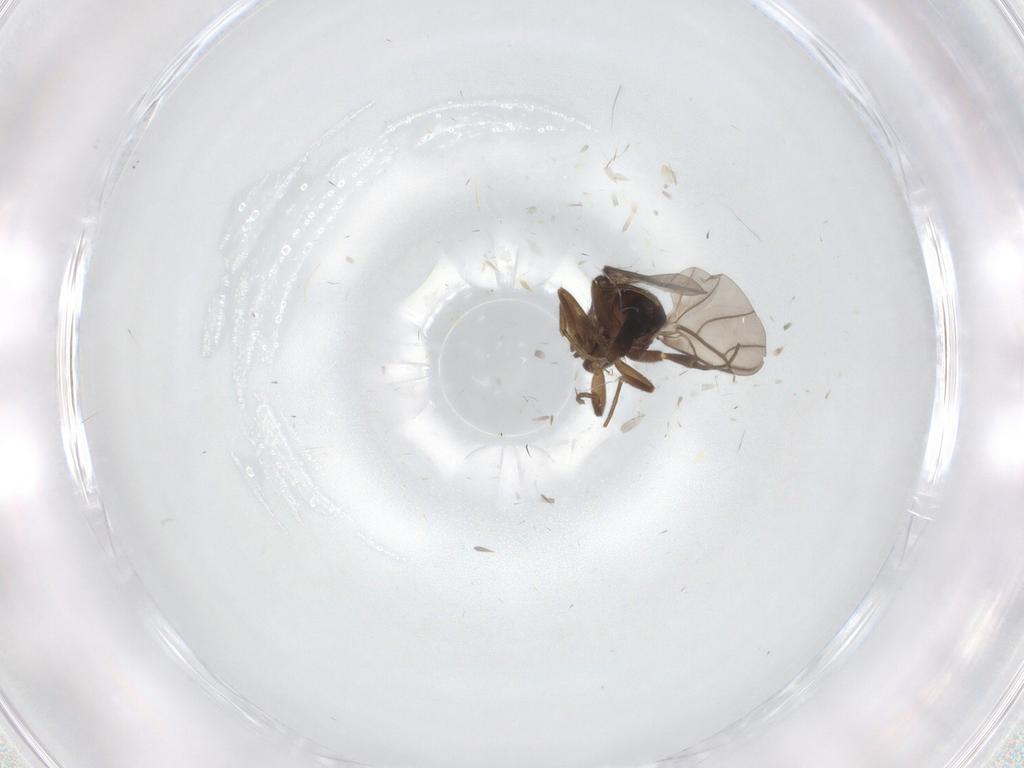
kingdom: Animalia
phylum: Arthropoda
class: Insecta
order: Diptera
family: Phoridae
